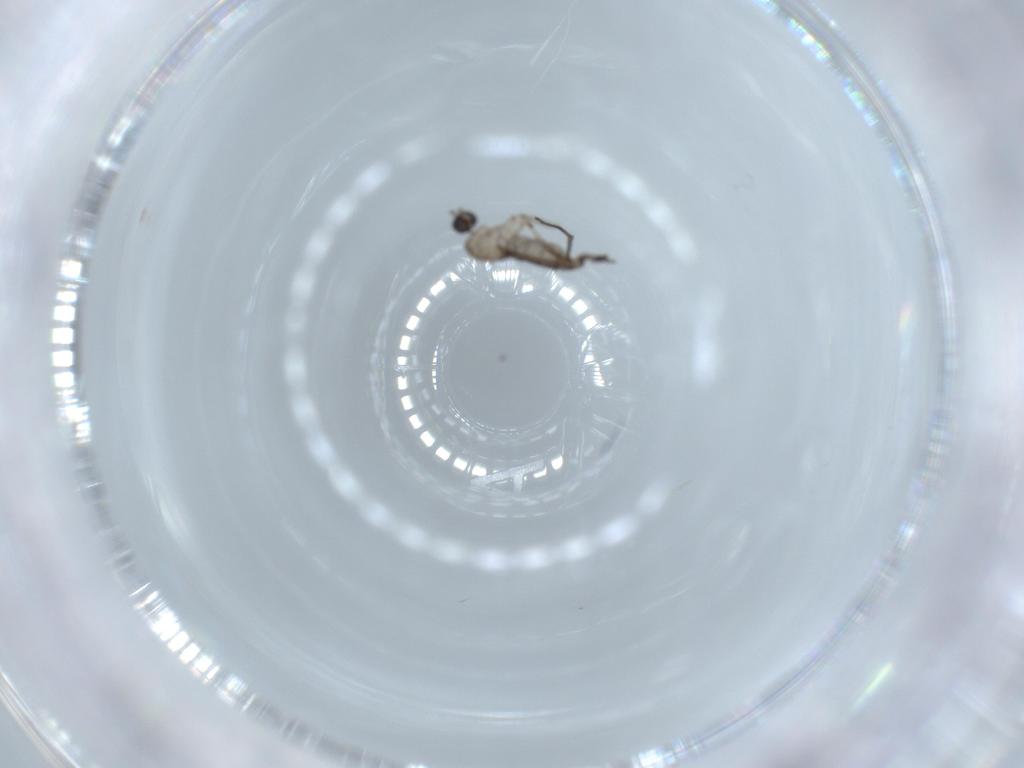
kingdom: Animalia
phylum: Arthropoda
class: Insecta
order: Diptera
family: Sciaridae
